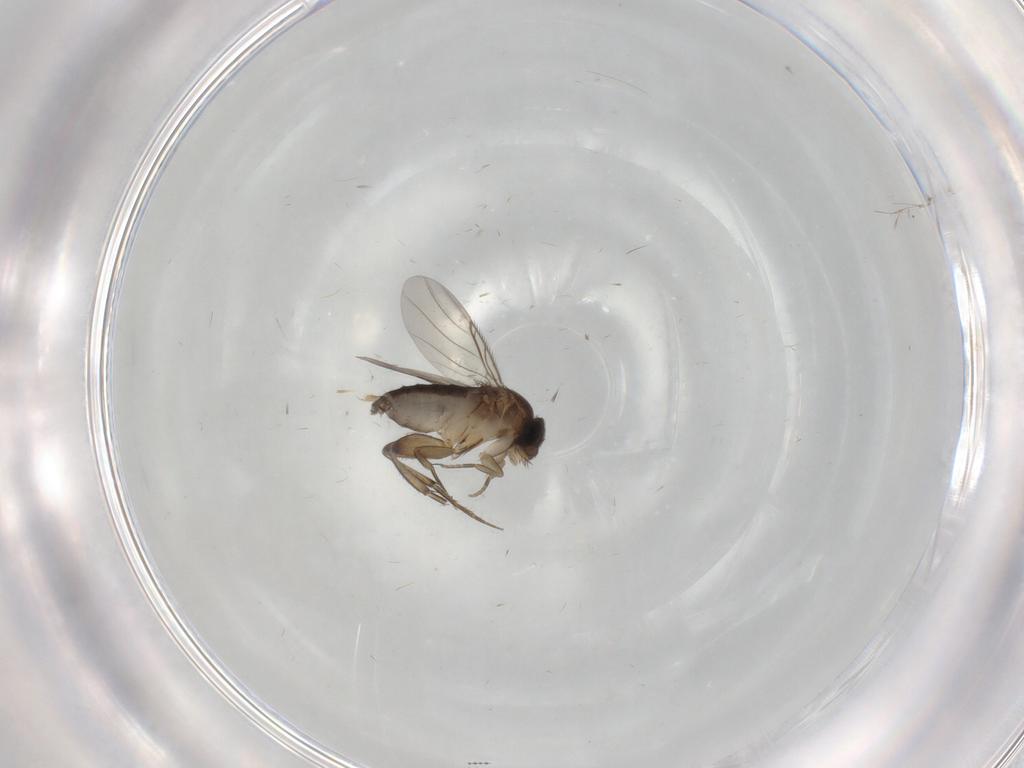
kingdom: Animalia
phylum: Arthropoda
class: Insecta
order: Diptera
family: Phoridae
